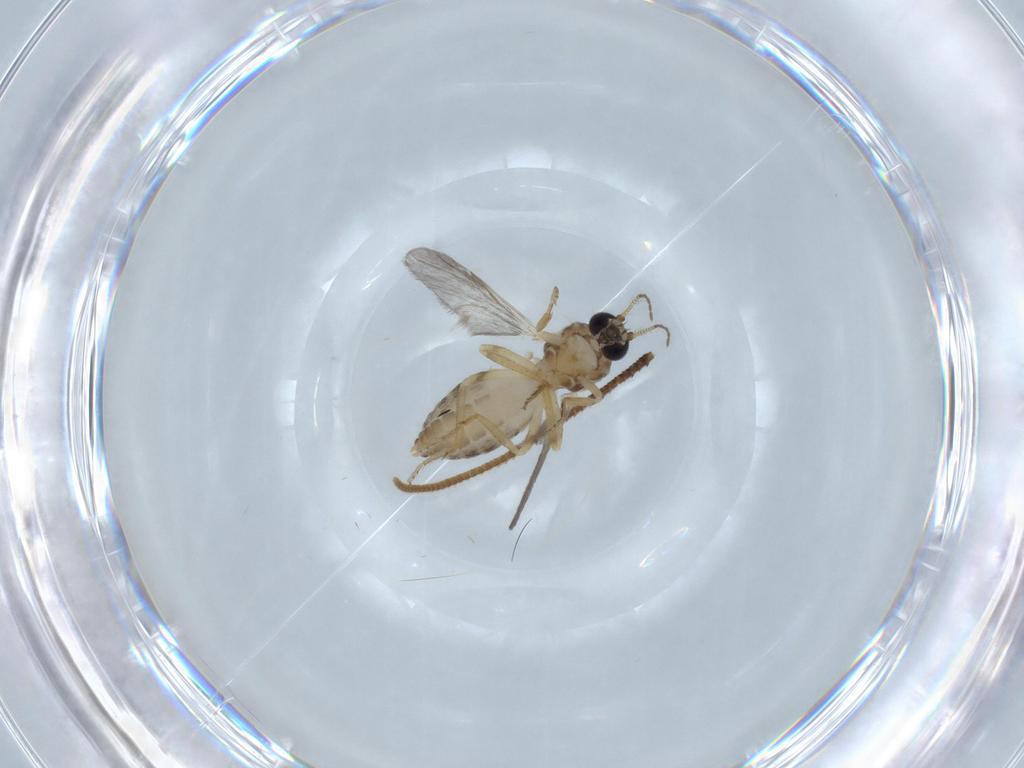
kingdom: Animalia
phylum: Arthropoda
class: Insecta
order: Diptera
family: Ceratopogonidae
